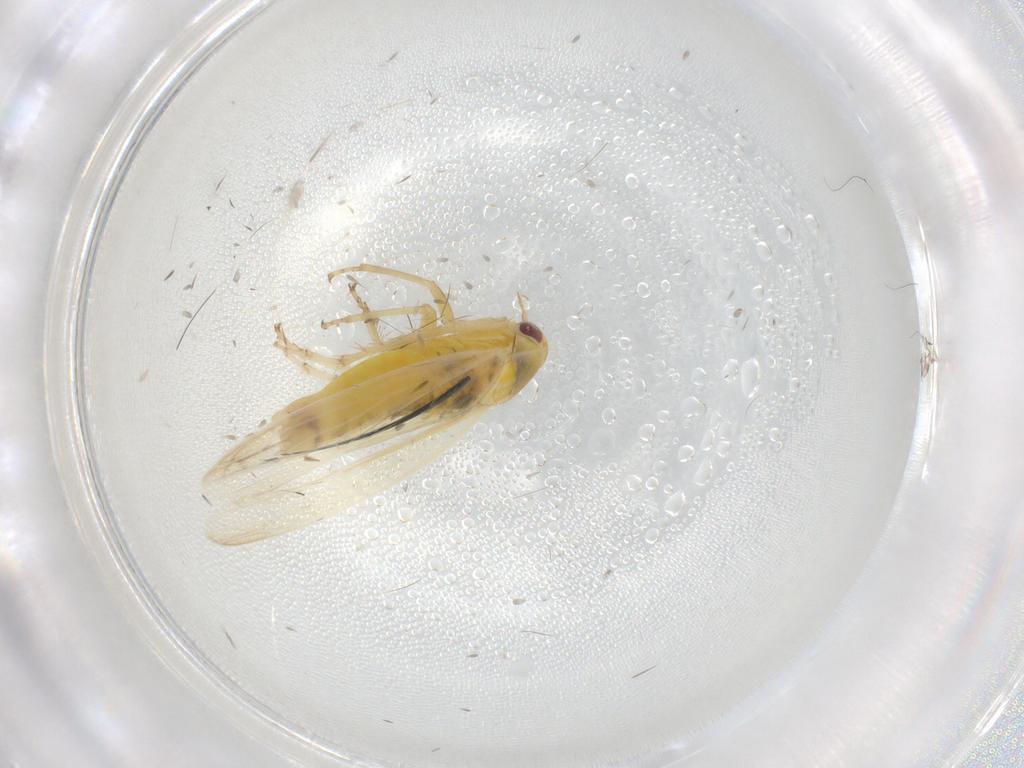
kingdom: Animalia
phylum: Arthropoda
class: Insecta
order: Hemiptera
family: Cicadellidae
